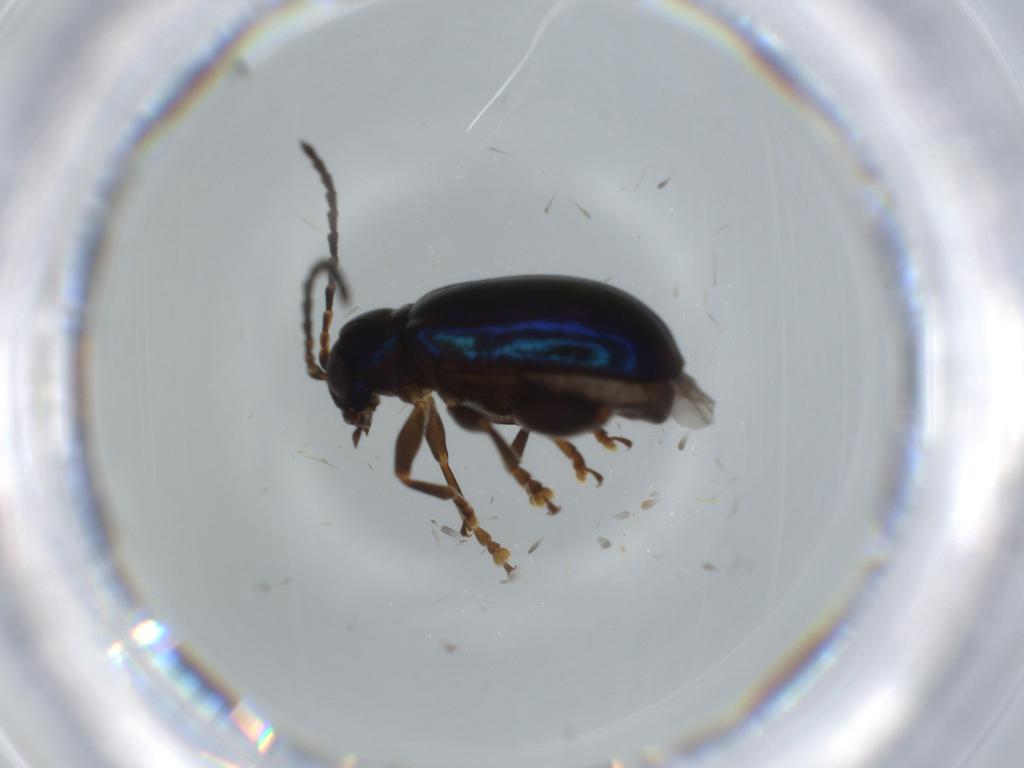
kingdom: Animalia
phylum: Arthropoda
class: Insecta
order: Coleoptera
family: Chrysomelidae
